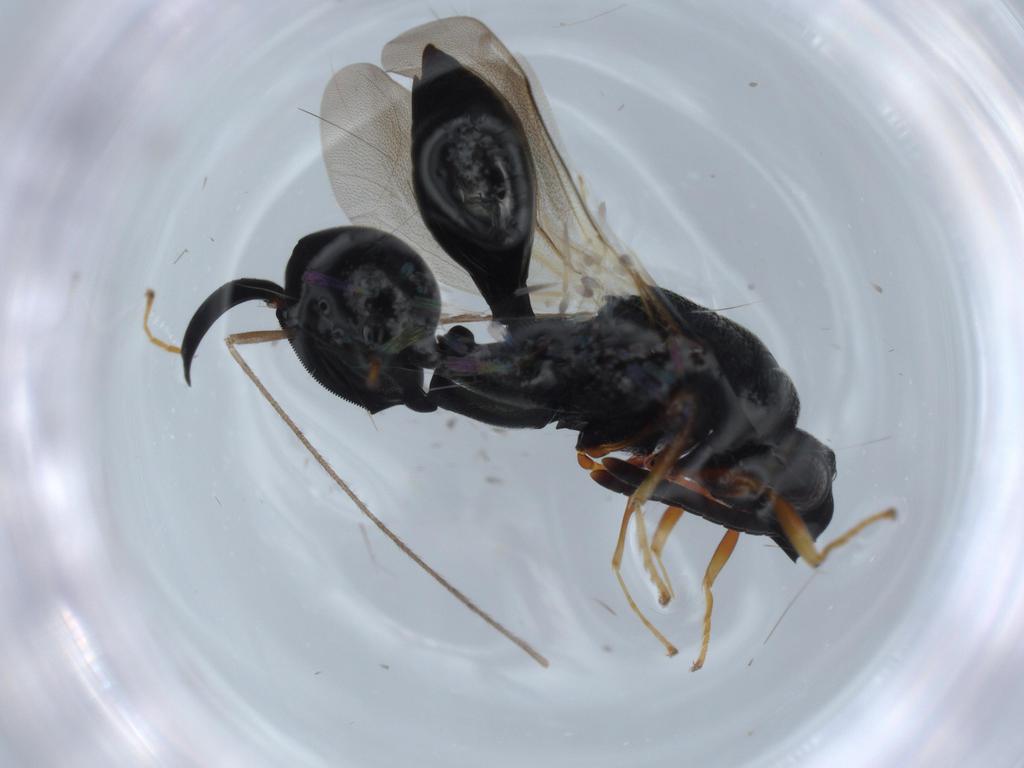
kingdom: Animalia
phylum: Arthropoda
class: Insecta
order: Hymenoptera
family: Chalcididae
